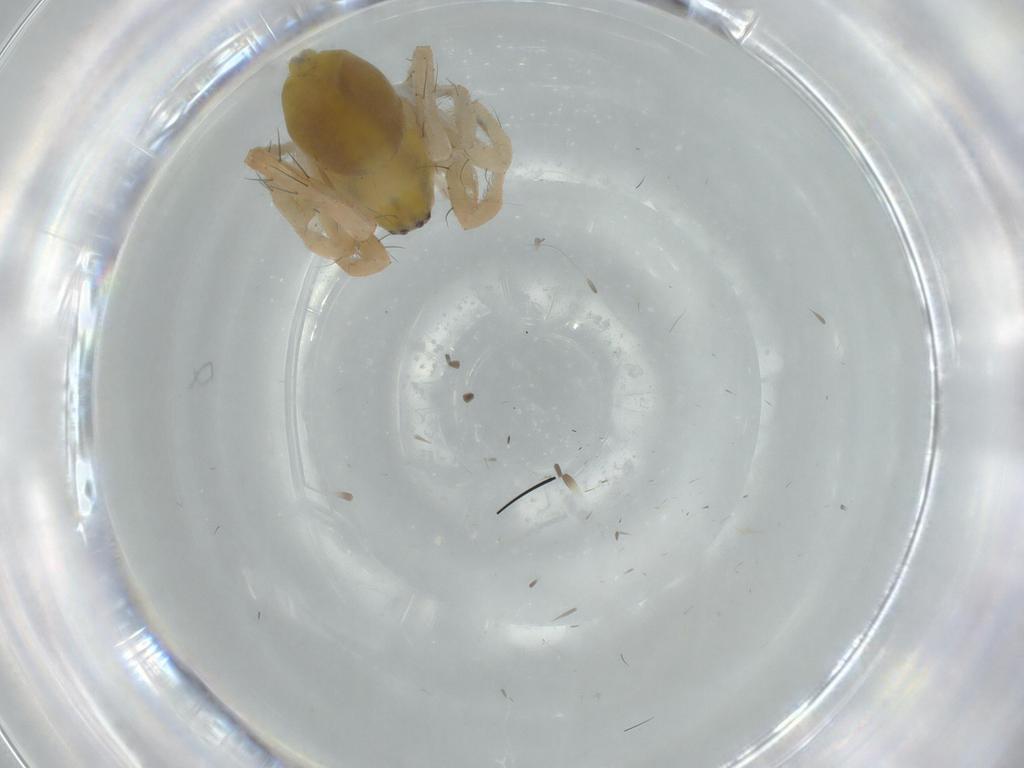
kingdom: Animalia
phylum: Arthropoda
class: Arachnida
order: Araneae
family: Anyphaenidae
